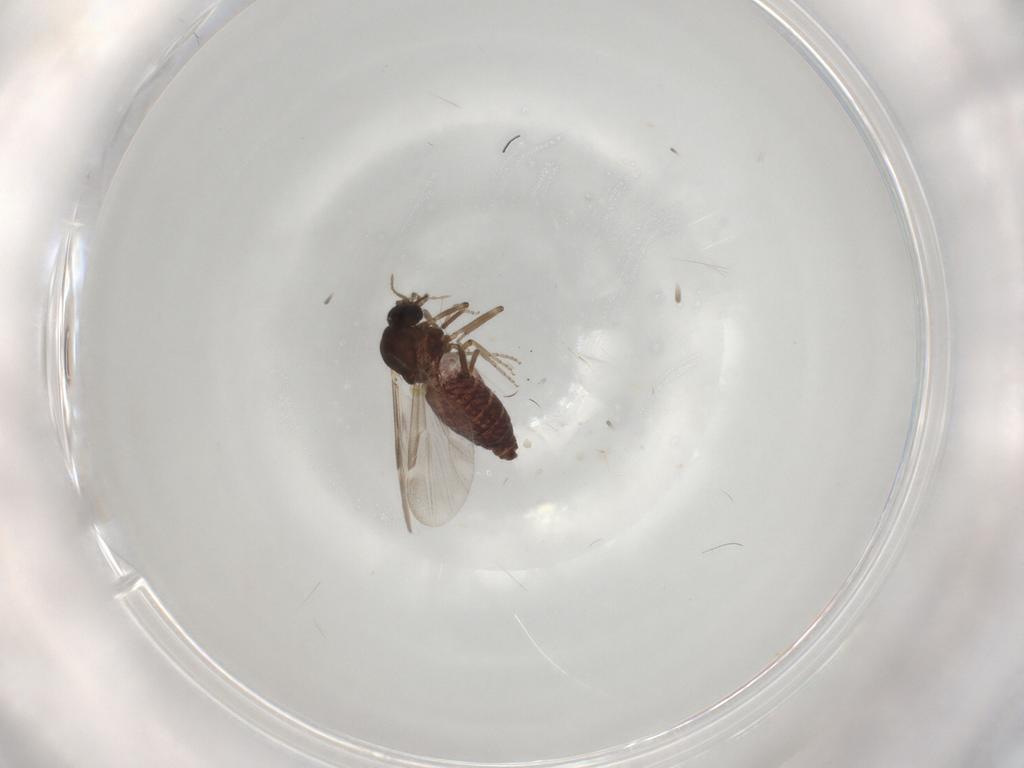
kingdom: Animalia
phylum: Arthropoda
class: Insecta
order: Diptera
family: Ceratopogonidae
